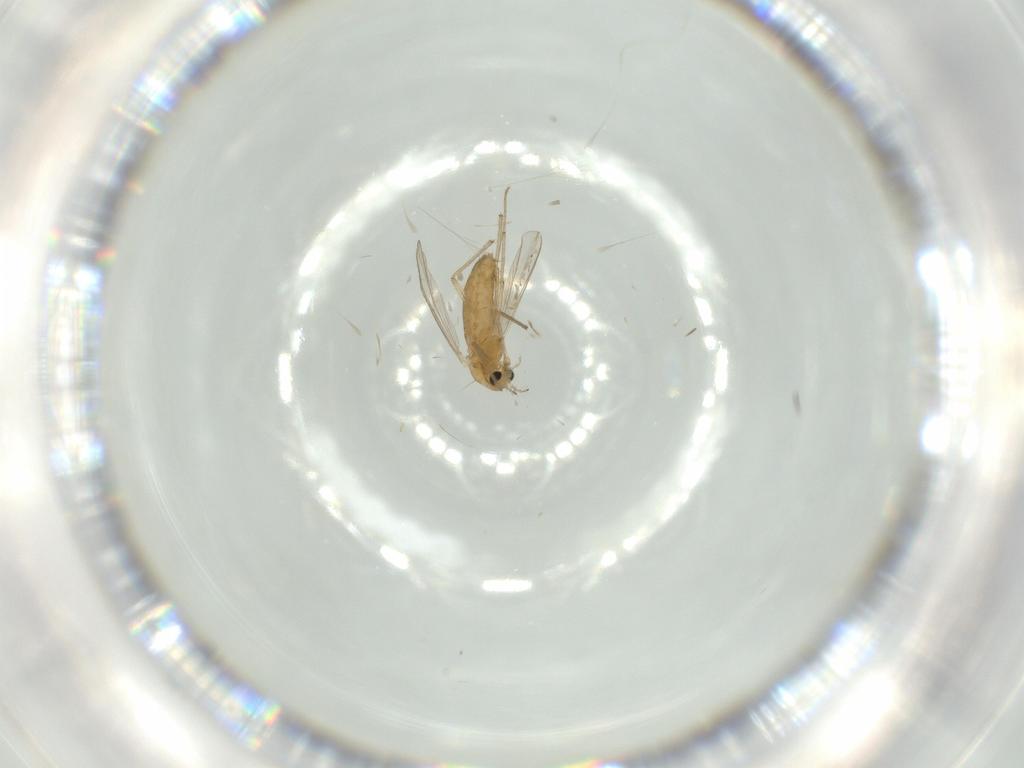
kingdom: Animalia
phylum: Arthropoda
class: Insecta
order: Diptera
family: Chironomidae
